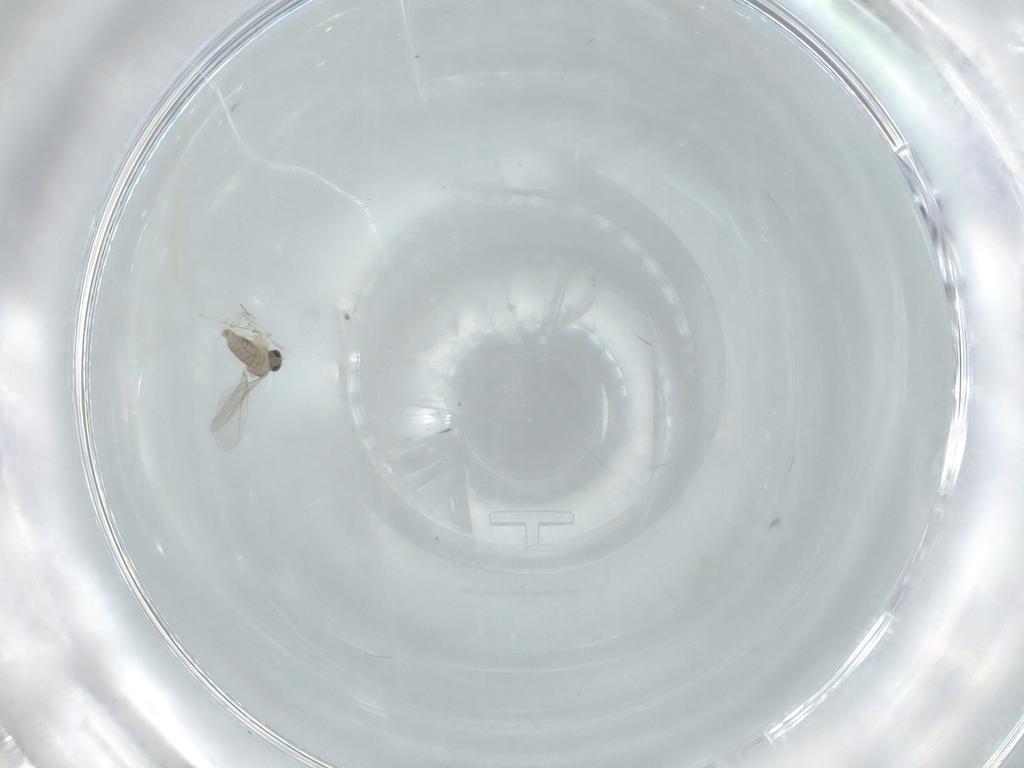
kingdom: Animalia
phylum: Arthropoda
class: Insecta
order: Diptera
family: Cecidomyiidae
